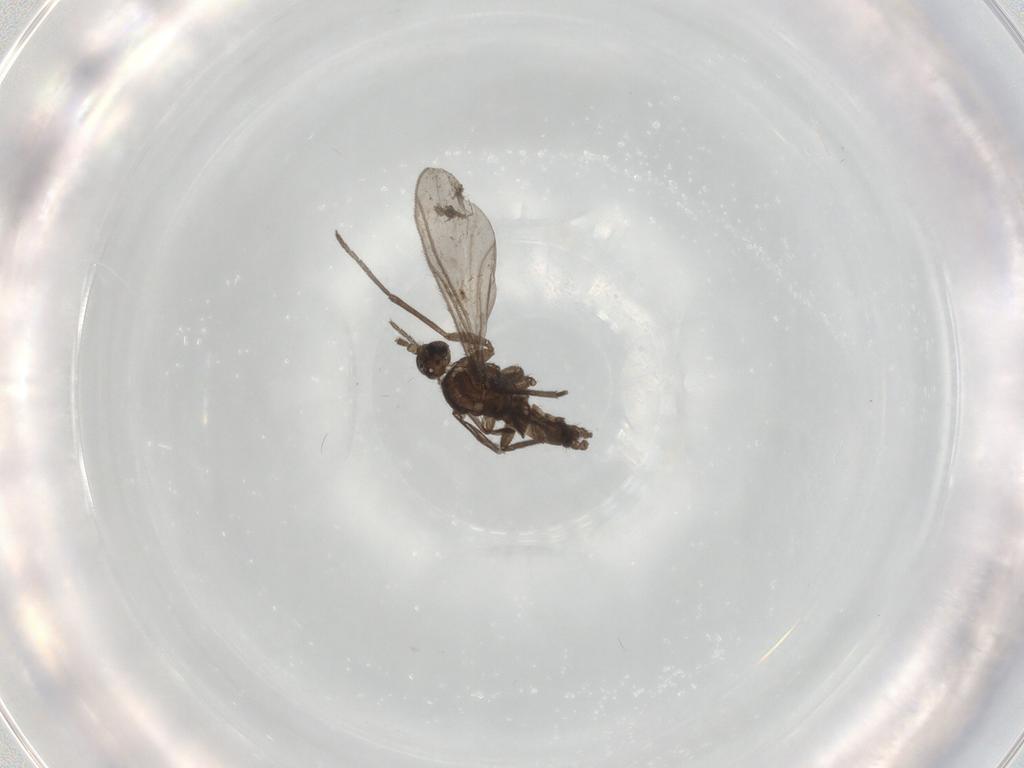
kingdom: Animalia
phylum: Arthropoda
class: Insecta
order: Diptera
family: Sciaridae
